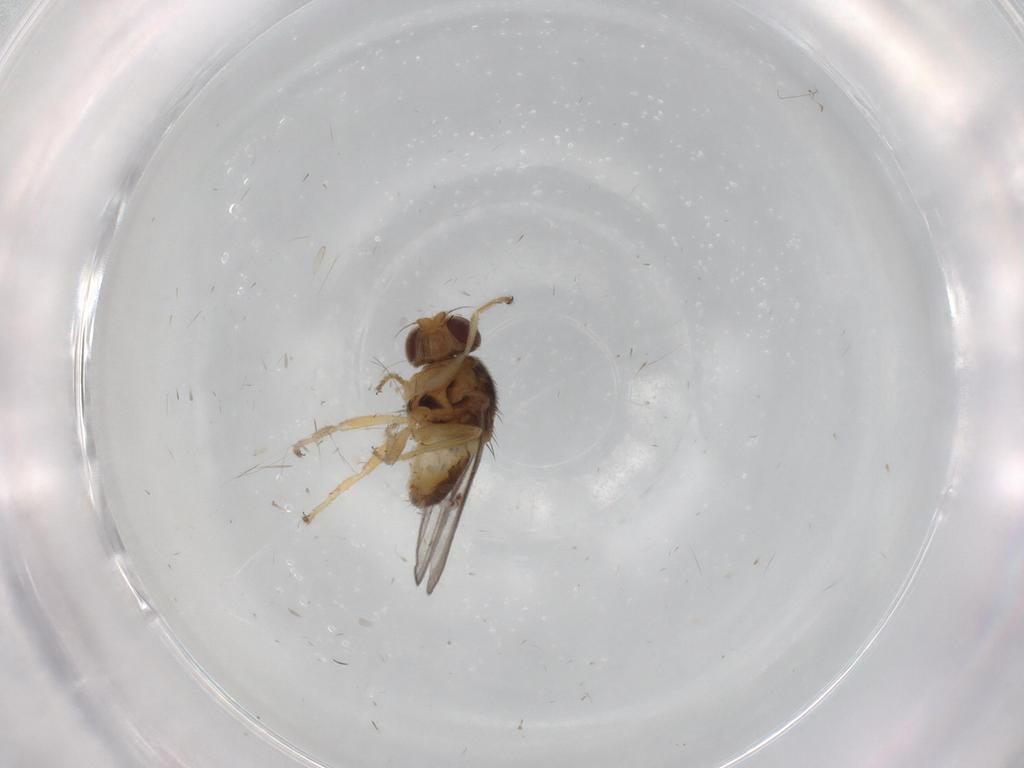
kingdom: Animalia
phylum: Arthropoda
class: Insecta
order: Diptera
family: Chloropidae
